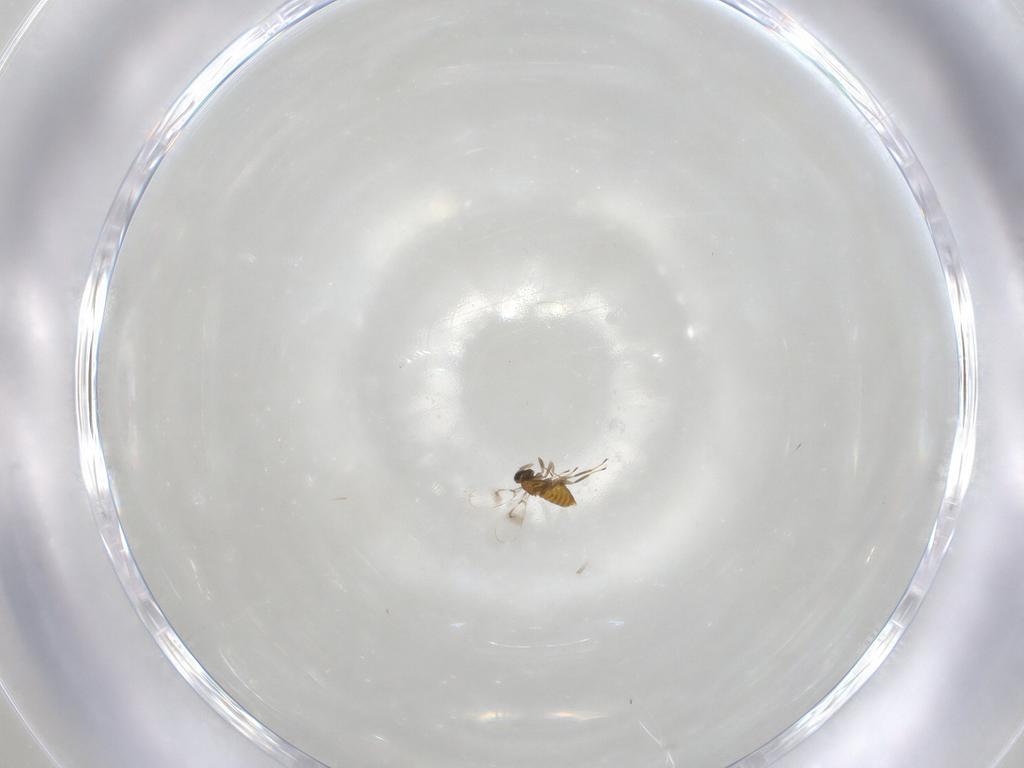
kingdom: Animalia
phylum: Arthropoda
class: Insecta
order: Hymenoptera
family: Trichogrammatidae
